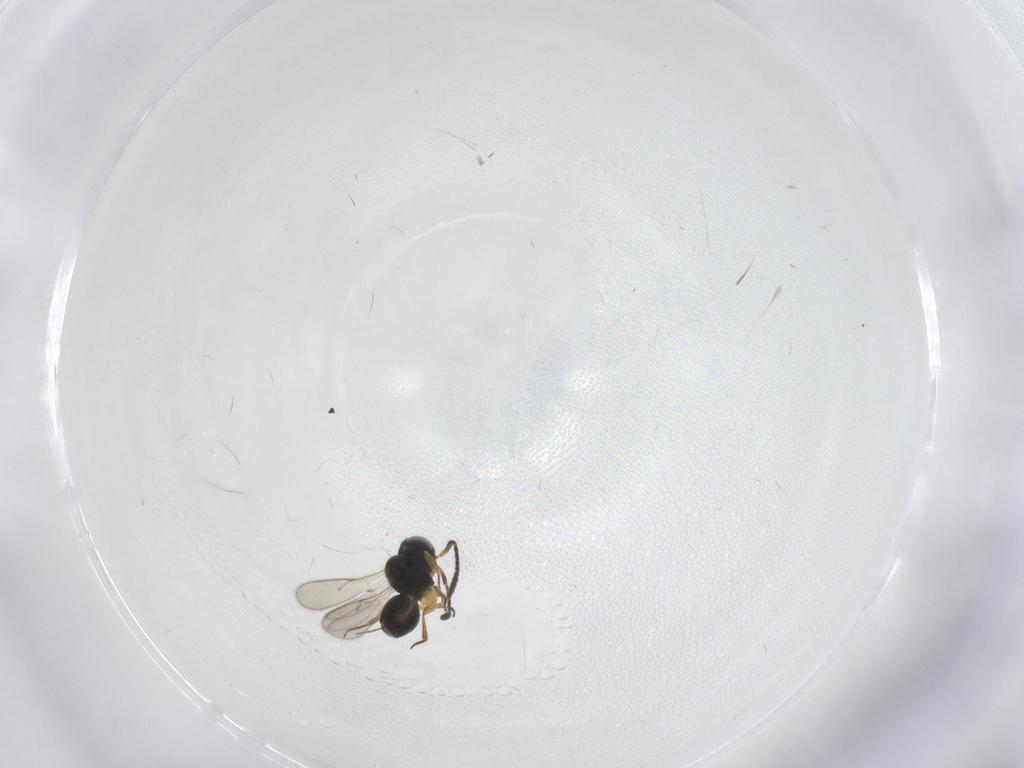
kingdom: Animalia
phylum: Arthropoda
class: Insecta
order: Hymenoptera
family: Scelionidae
